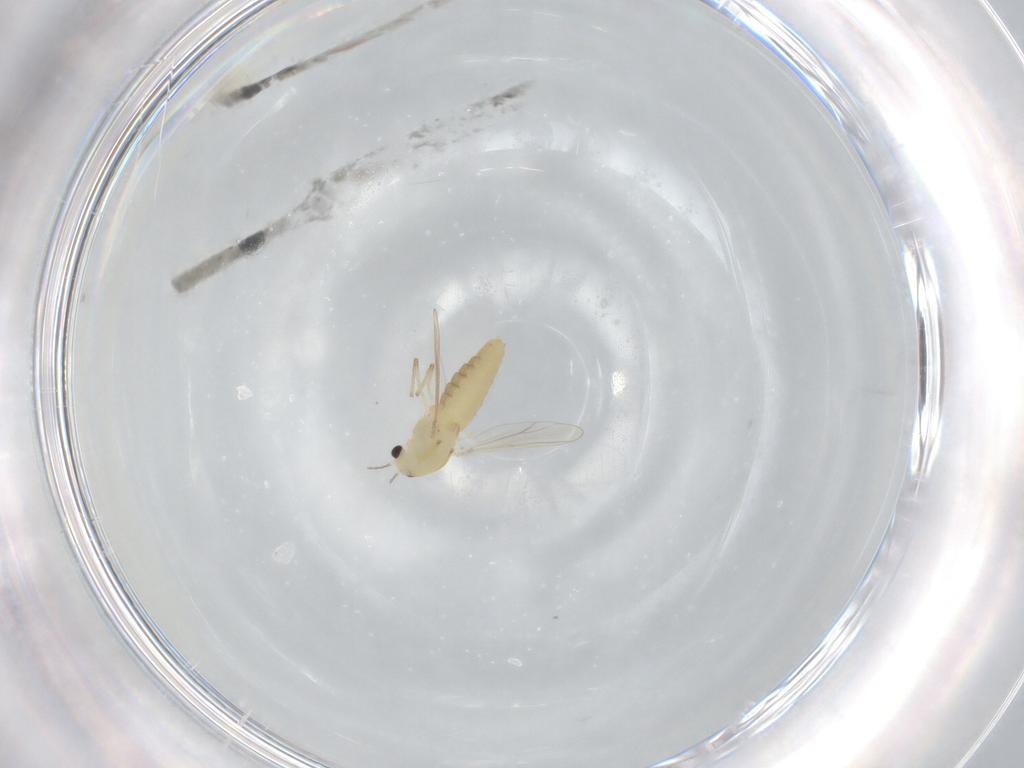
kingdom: Animalia
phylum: Arthropoda
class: Insecta
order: Diptera
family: Chironomidae
